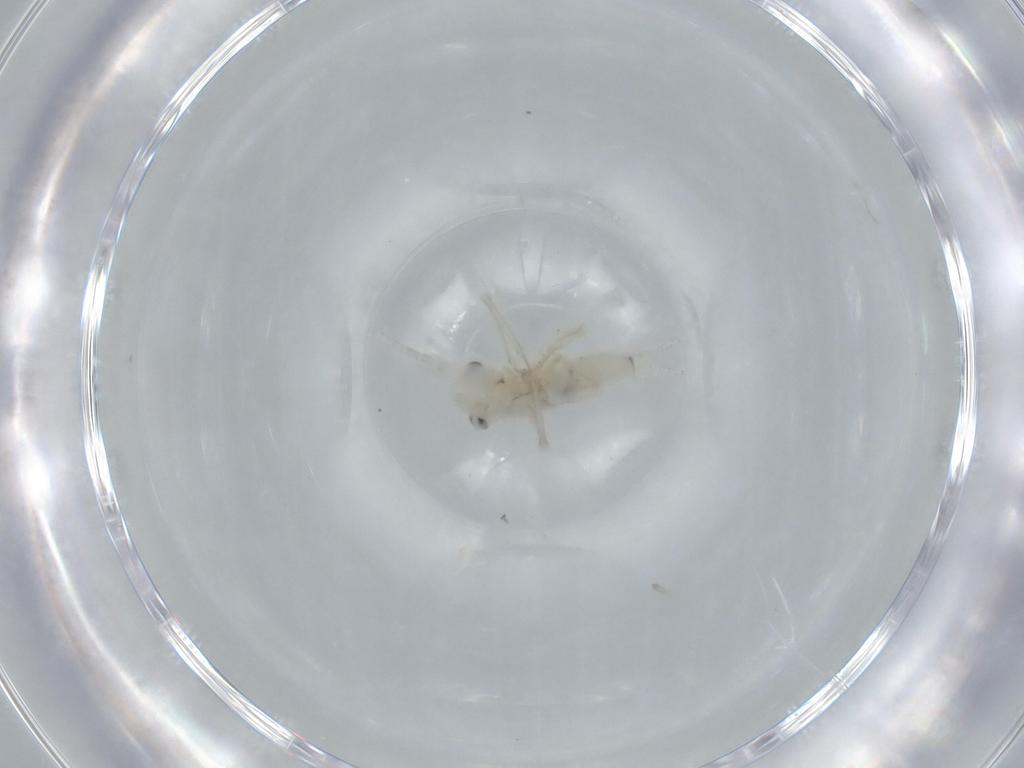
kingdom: Animalia
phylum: Arthropoda
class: Insecta
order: Orthoptera
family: Trigonidiidae
